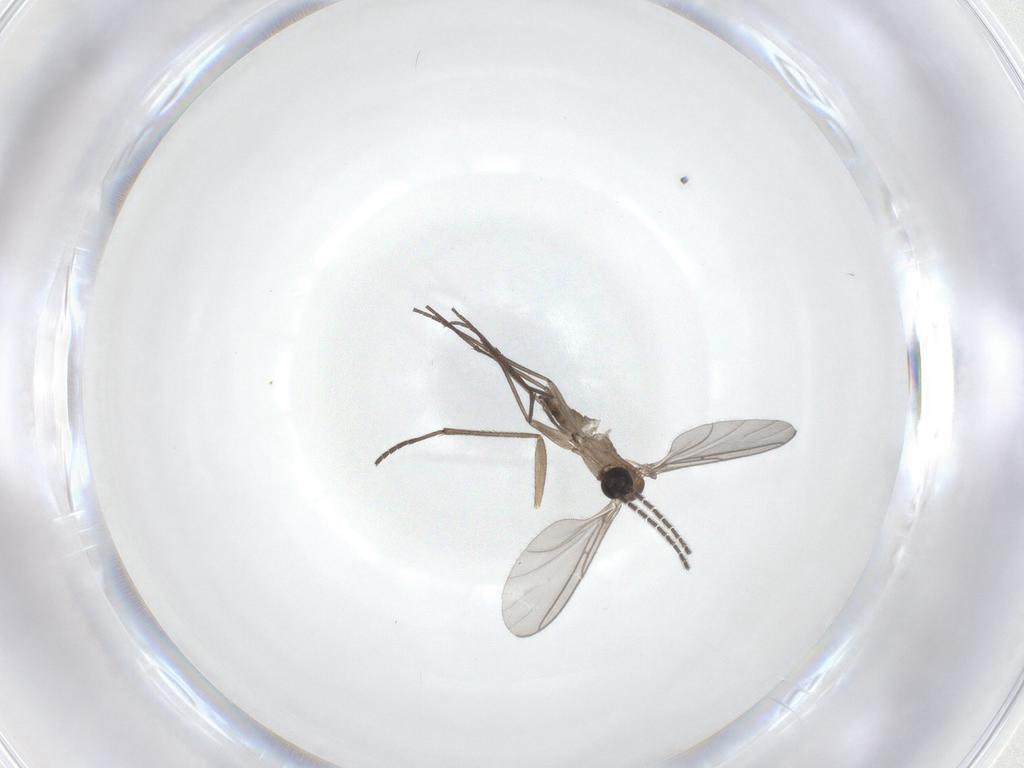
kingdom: Animalia
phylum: Arthropoda
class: Insecta
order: Diptera
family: Sciaridae
